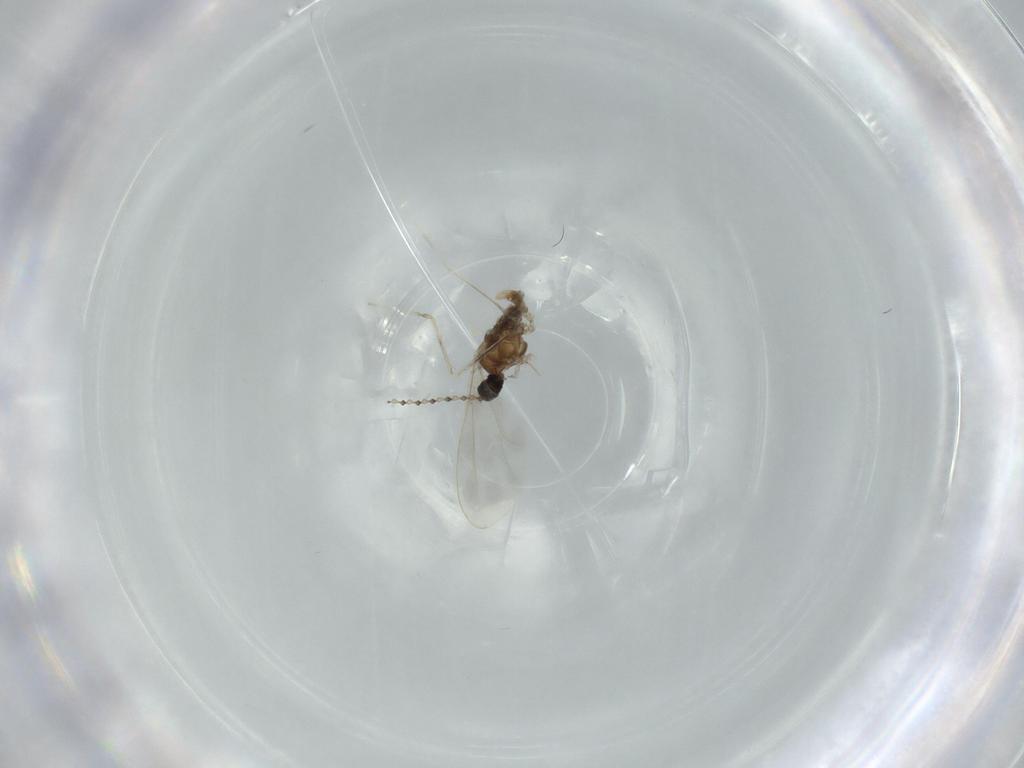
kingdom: Animalia
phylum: Arthropoda
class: Insecta
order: Diptera
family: Cecidomyiidae
